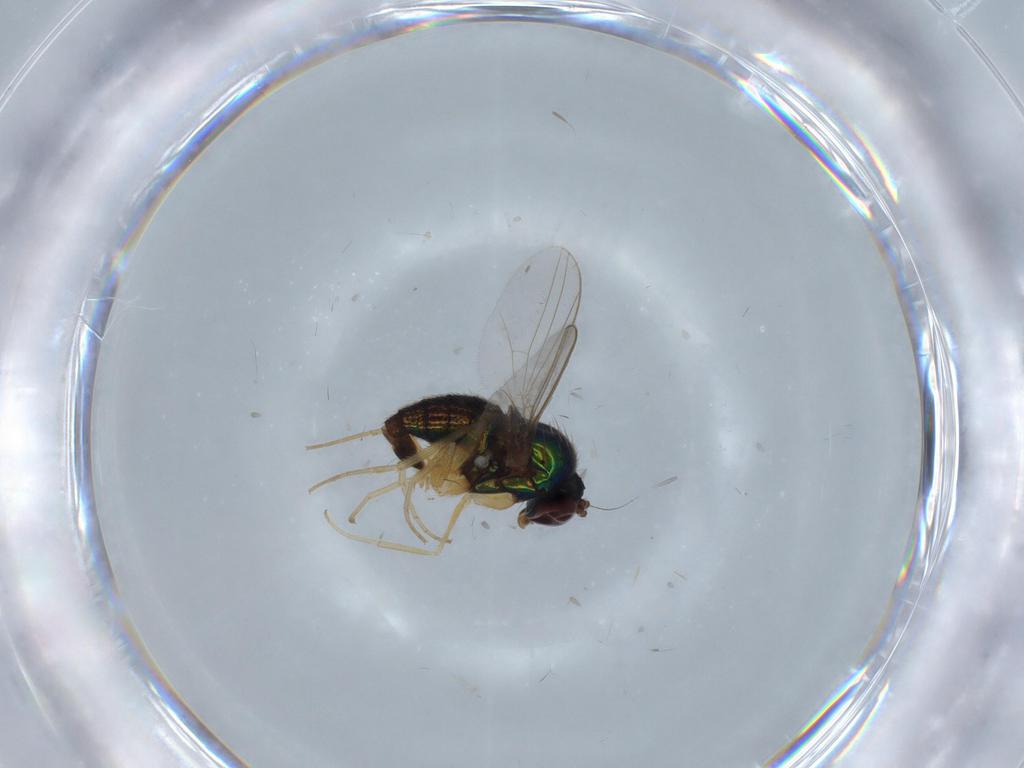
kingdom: Animalia
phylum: Arthropoda
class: Insecta
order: Diptera
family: Dolichopodidae
